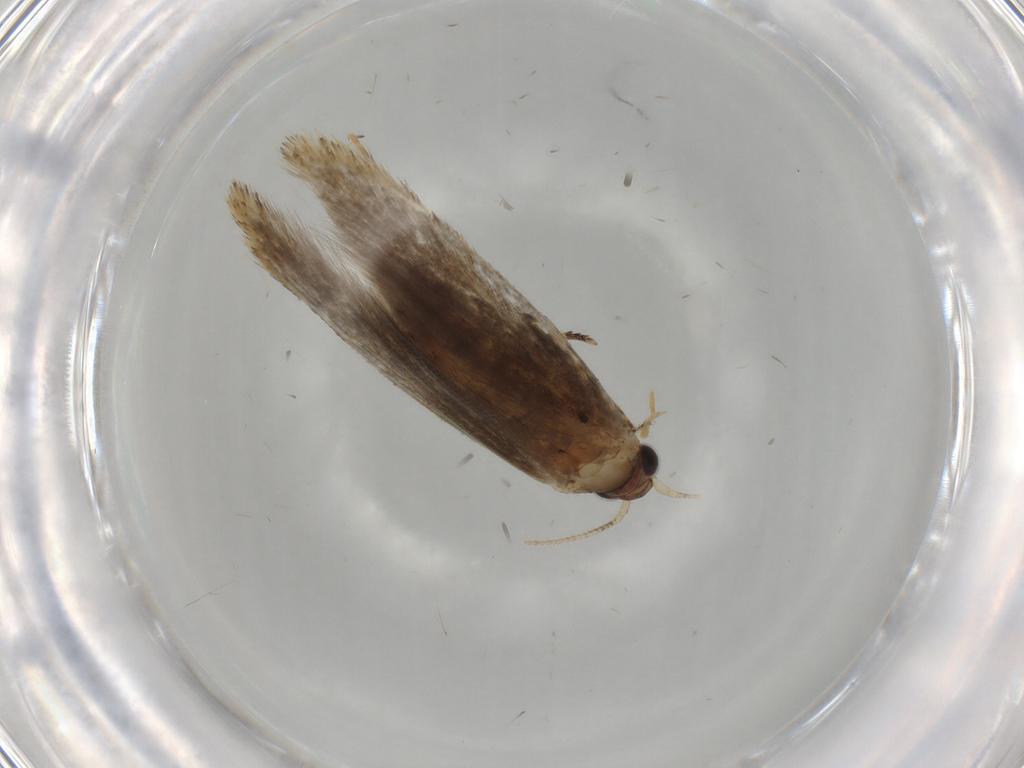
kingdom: Animalia
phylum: Arthropoda
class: Insecta
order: Lepidoptera
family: Tineidae
